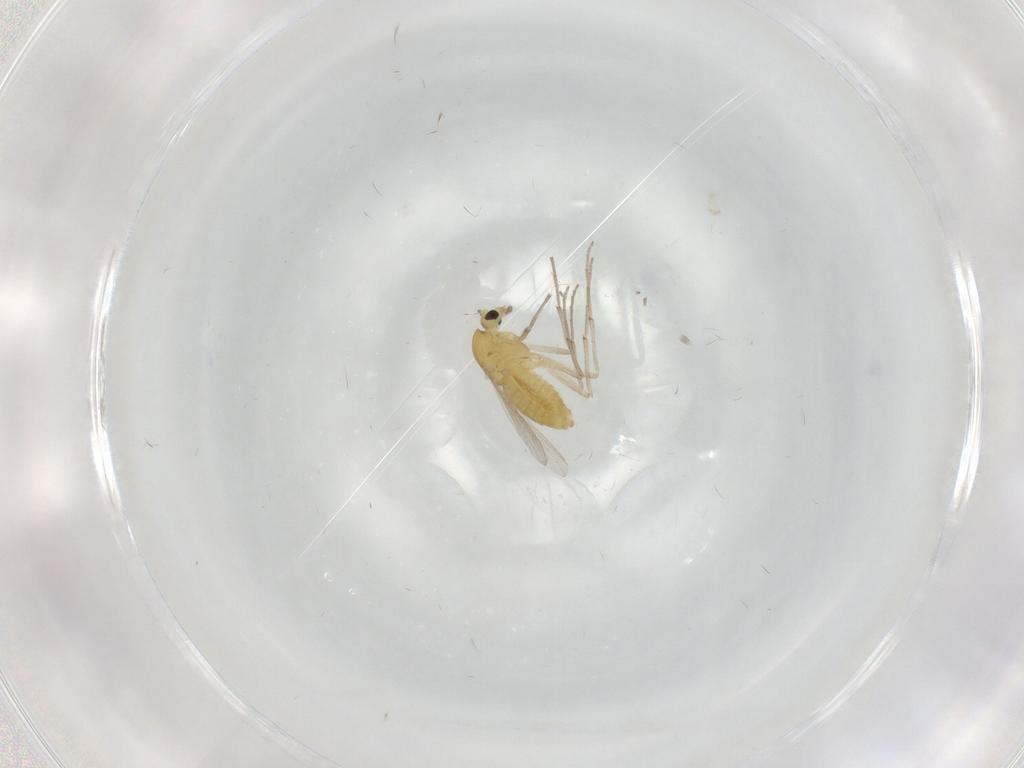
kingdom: Animalia
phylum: Arthropoda
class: Insecta
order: Diptera
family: Chironomidae
